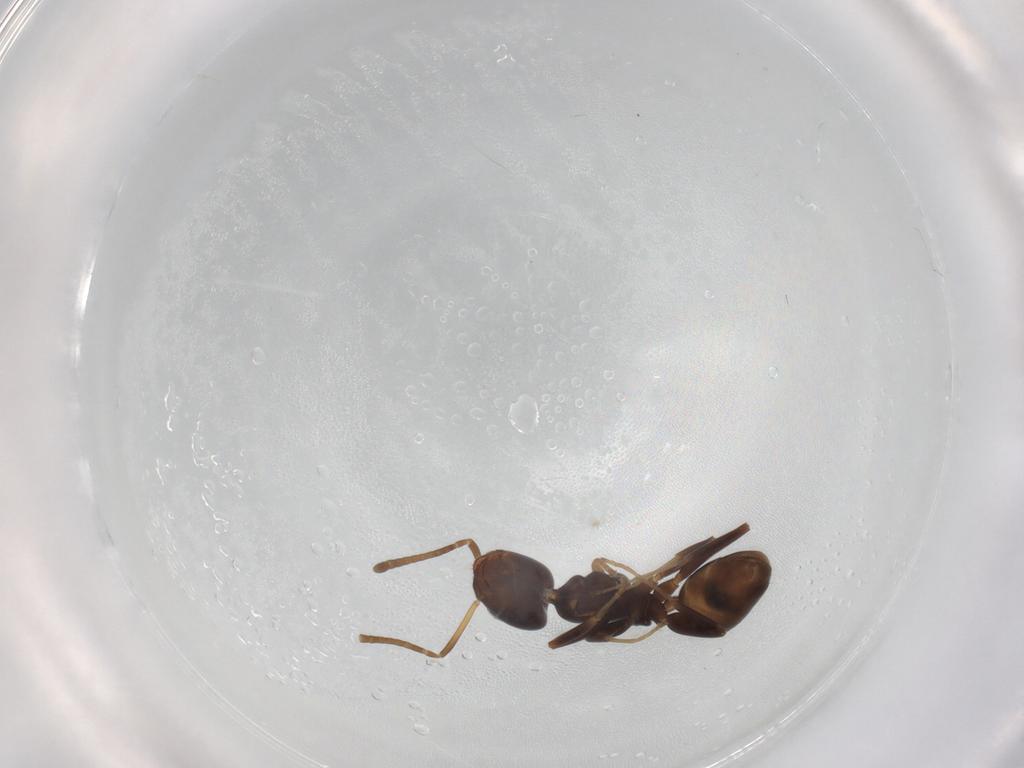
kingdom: Animalia
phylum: Arthropoda
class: Insecta
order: Hymenoptera
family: Formicidae
